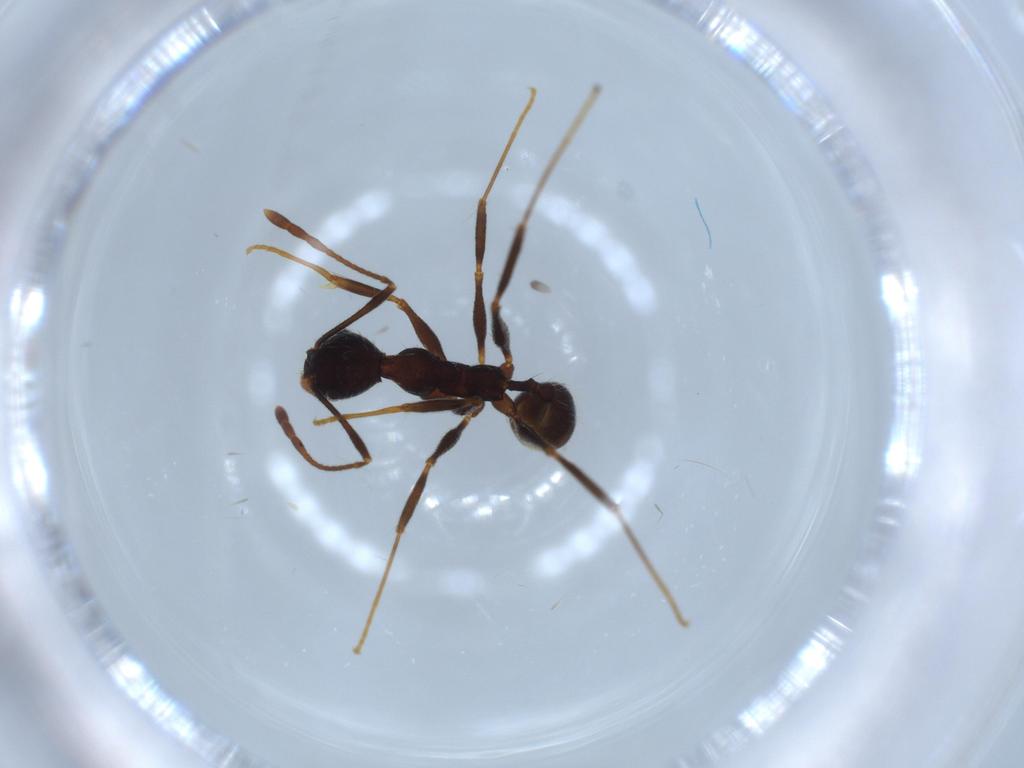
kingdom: Animalia
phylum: Arthropoda
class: Insecta
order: Hymenoptera
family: Formicidae
